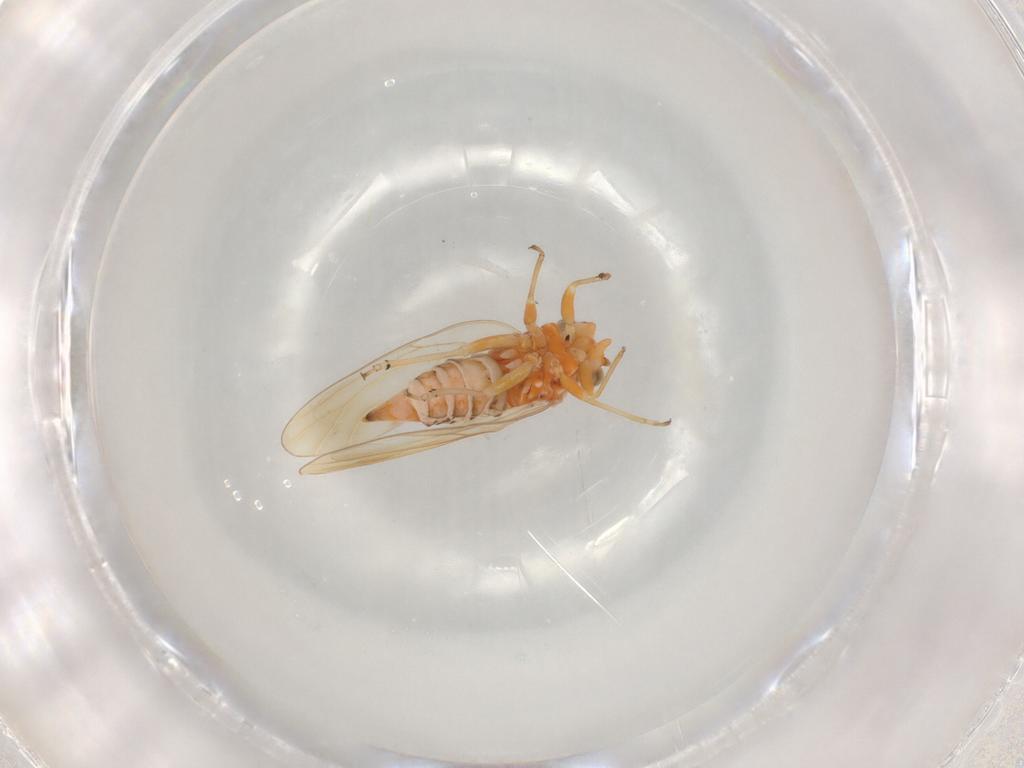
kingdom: Animalia
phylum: Arthropoda
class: Insecta
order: Hemiptera
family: Psyllidae
